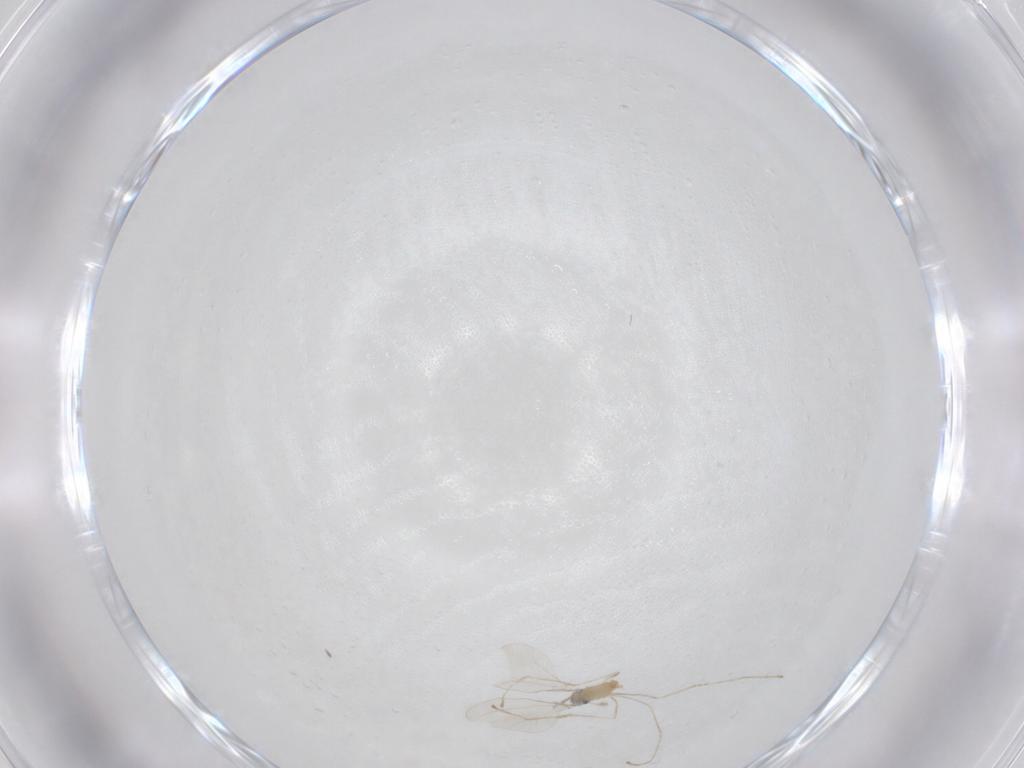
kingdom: Animalia
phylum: Arthropoda
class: Insecta
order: Diptera
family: Cecidomyiidae
